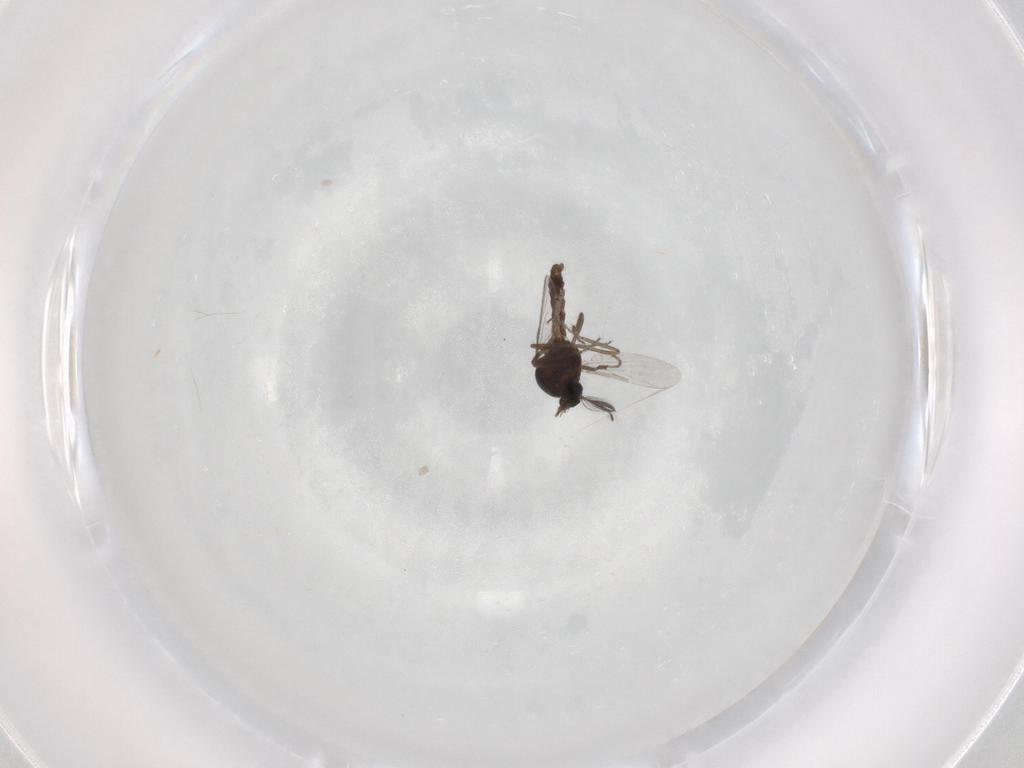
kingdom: Animalia
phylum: Arthropoda
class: Insecta
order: Diptera
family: Ceratopogonidae
